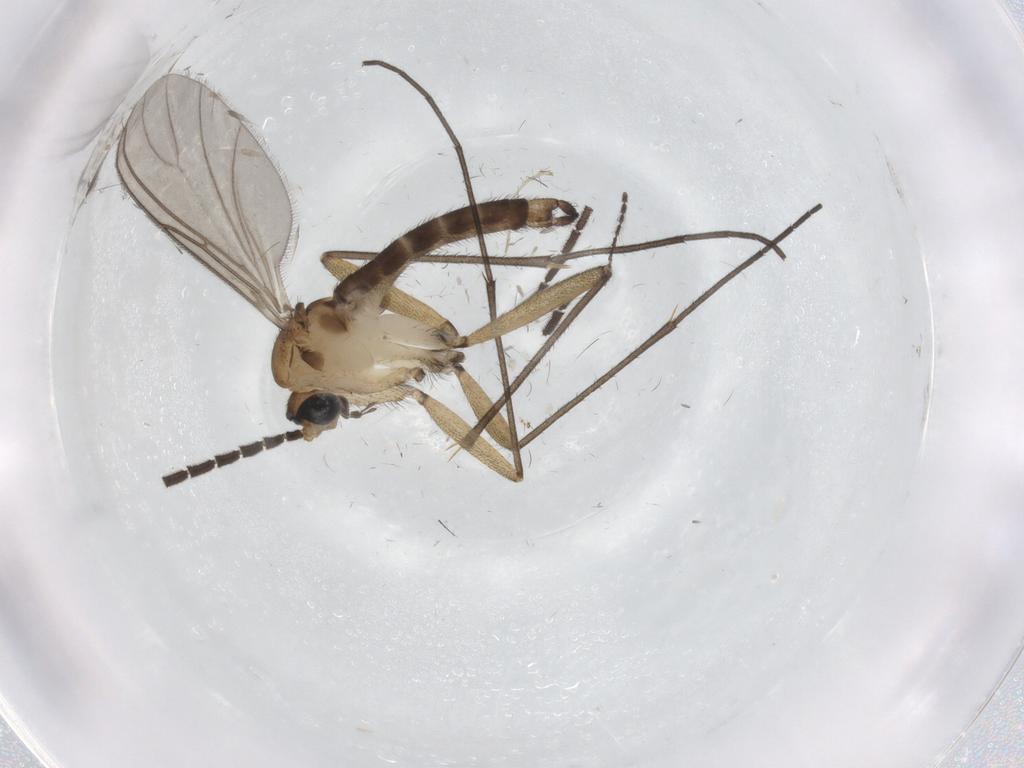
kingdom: Animalia
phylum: Arthropoda
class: Insecta
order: Diptera
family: Sciaridae
